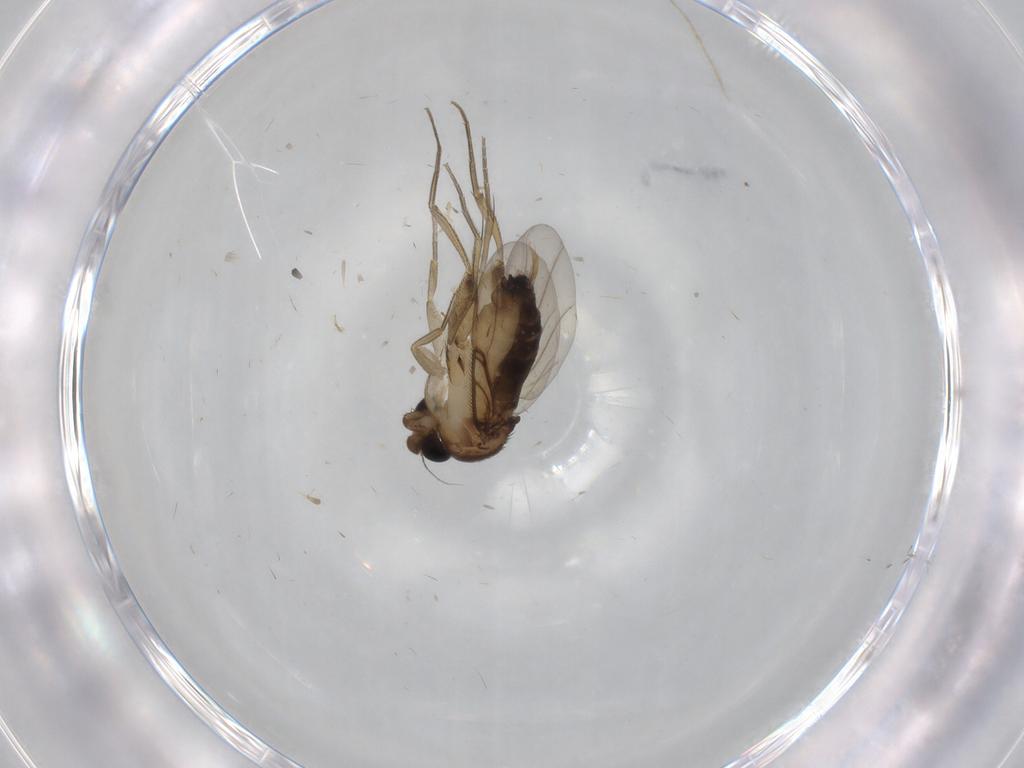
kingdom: Animalia
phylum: Arthropoda
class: Insecta
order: Diptera
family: Phoridae
